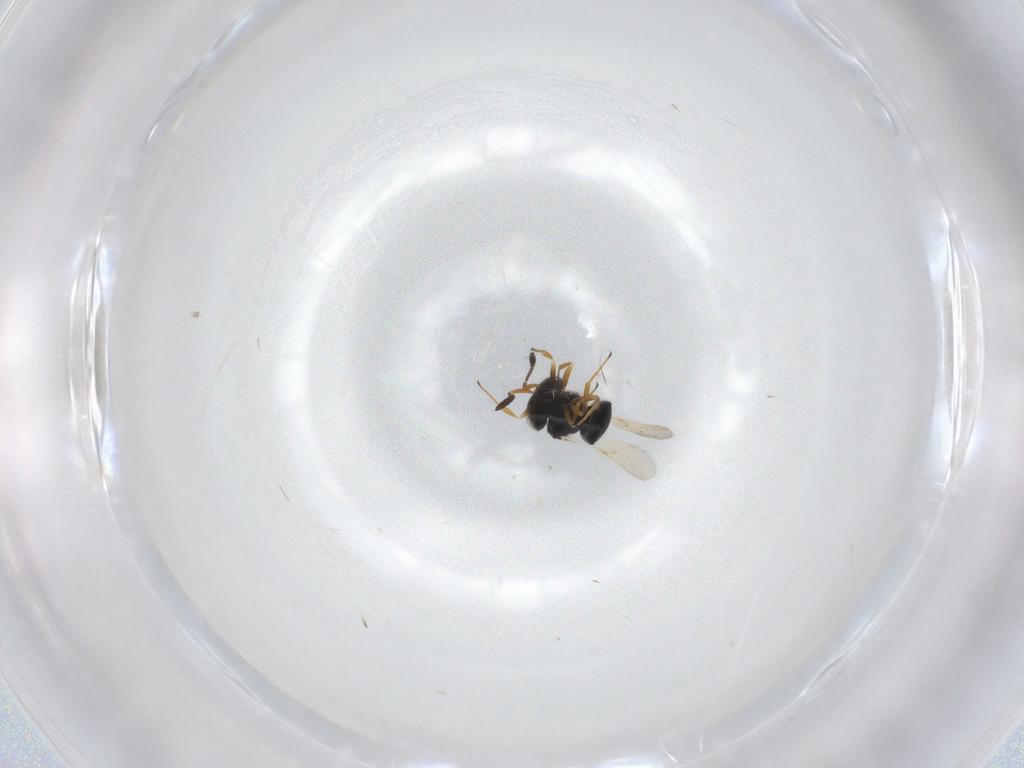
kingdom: Animalia
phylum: Arthropoda
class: Insecta
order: Hymenoptera
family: Scelionidae
